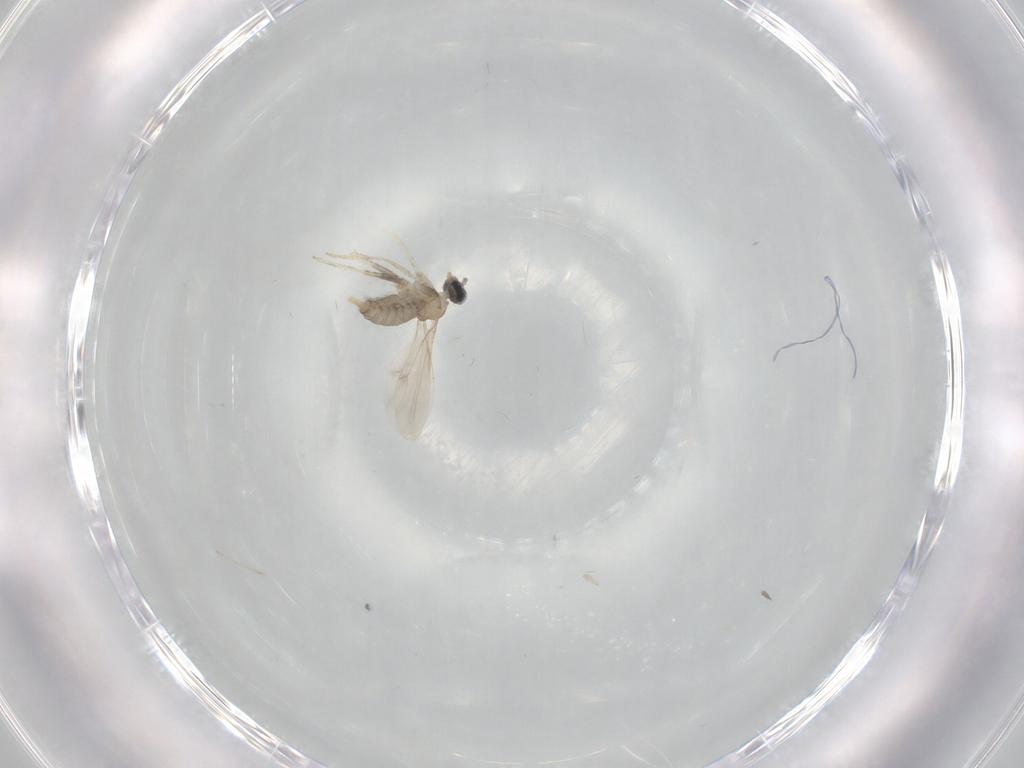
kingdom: Animalia
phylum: Arthropoda
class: Insecta
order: Diptera
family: Cecidomyiidae
